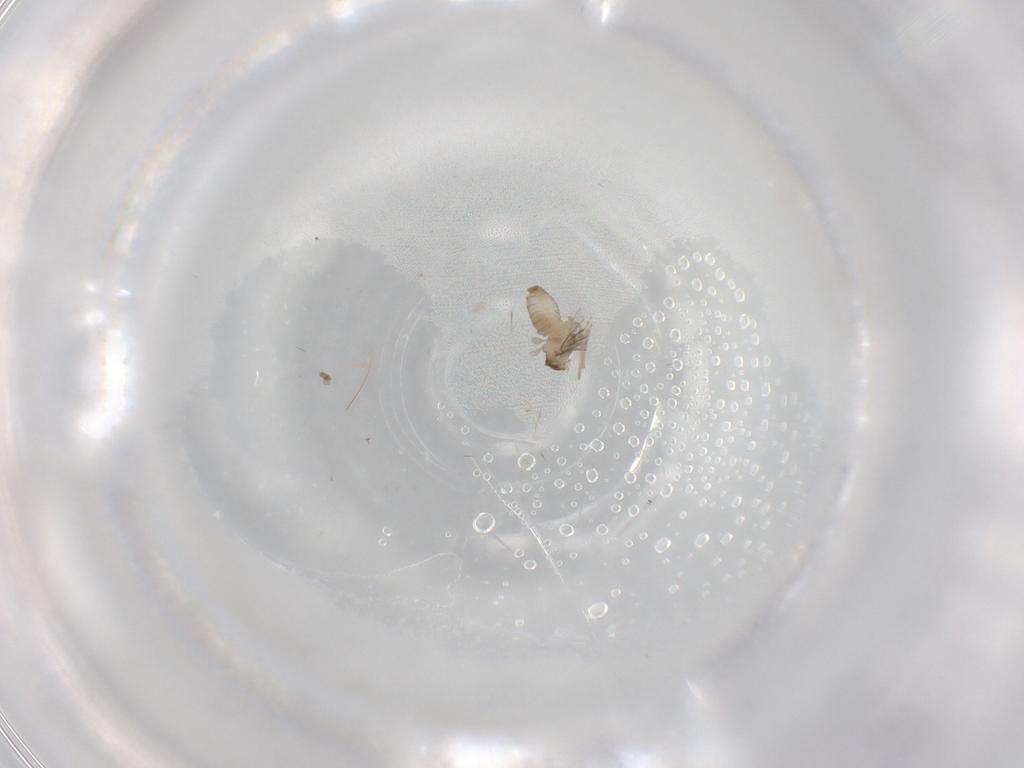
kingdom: Animalia
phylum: Arthropoda
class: Insecta
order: Diptera
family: Cecidomyiidae
